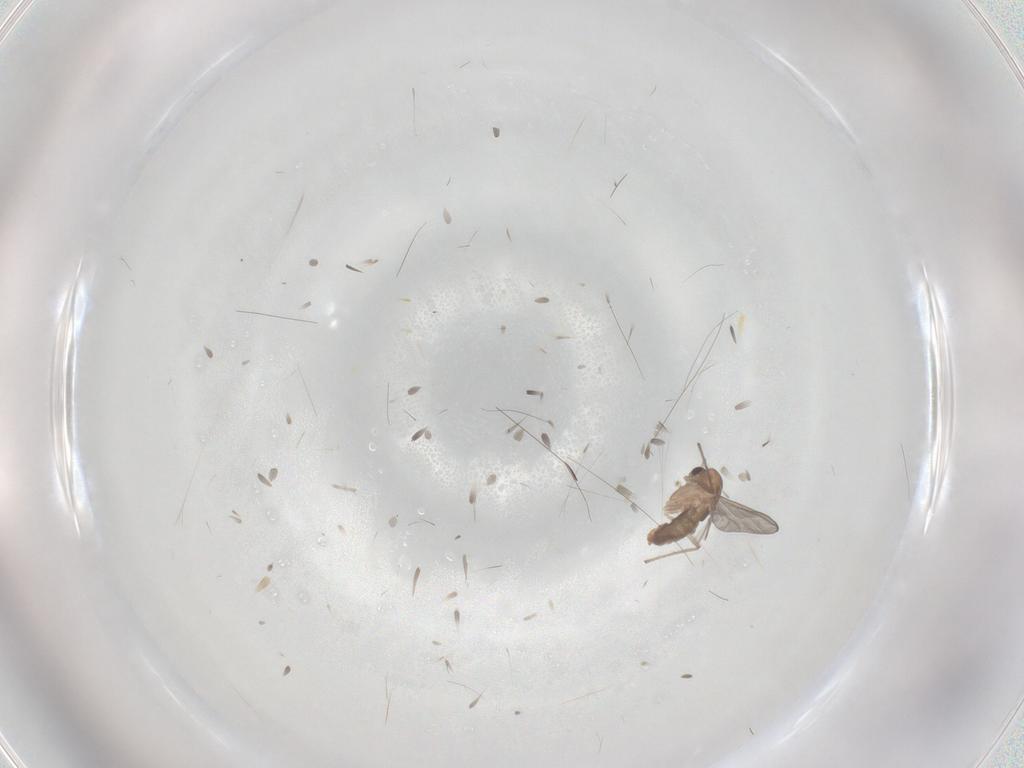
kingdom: Animalia
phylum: Arthropoda
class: Insecta
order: Diptera
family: Chironomidae
